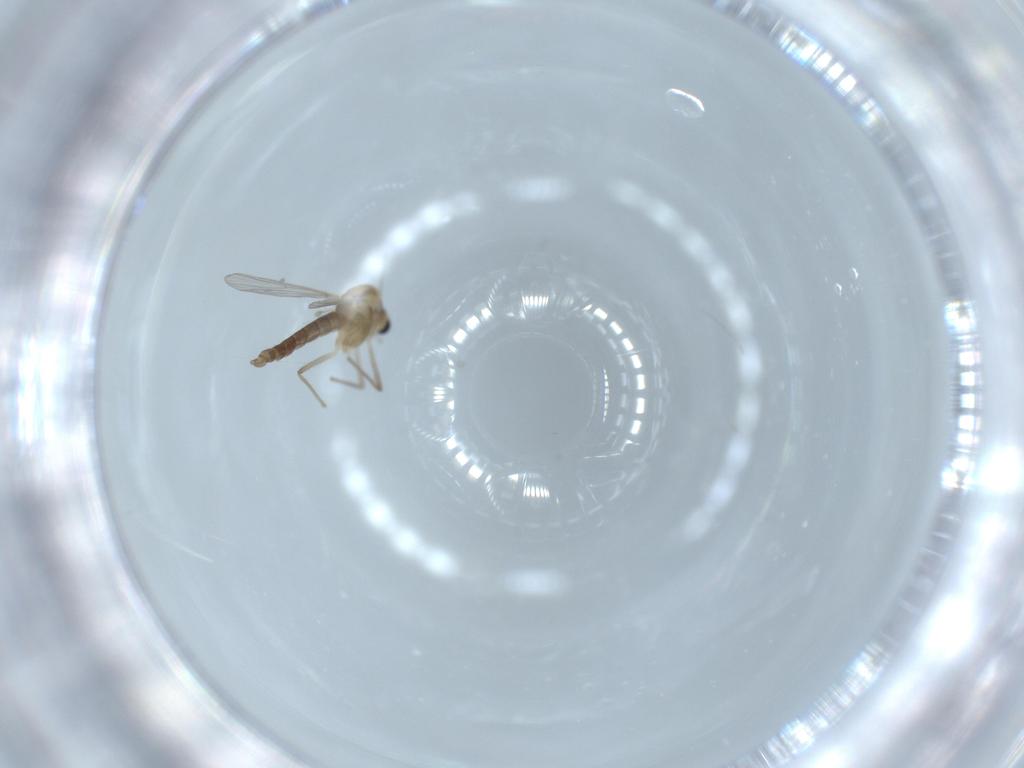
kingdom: Animalia
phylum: Arthropoda
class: Insecta
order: Diptera
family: Chironomidae
